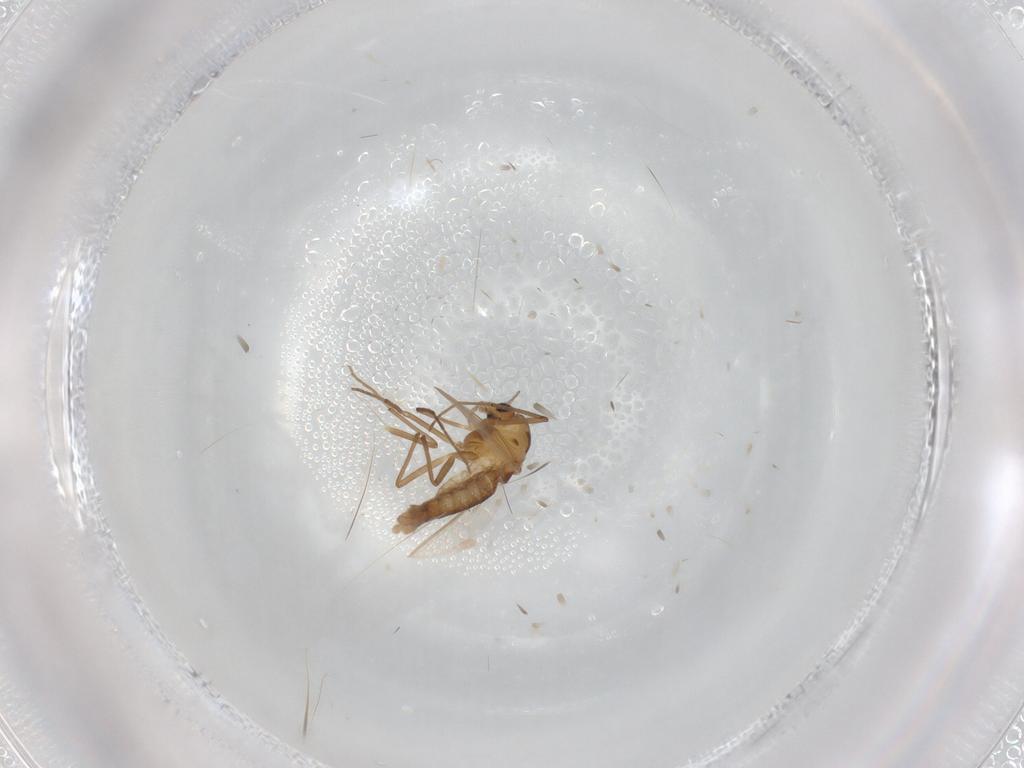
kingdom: Animalia
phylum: Arthropoda
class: Insecta
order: Diptera
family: Chironomidae
